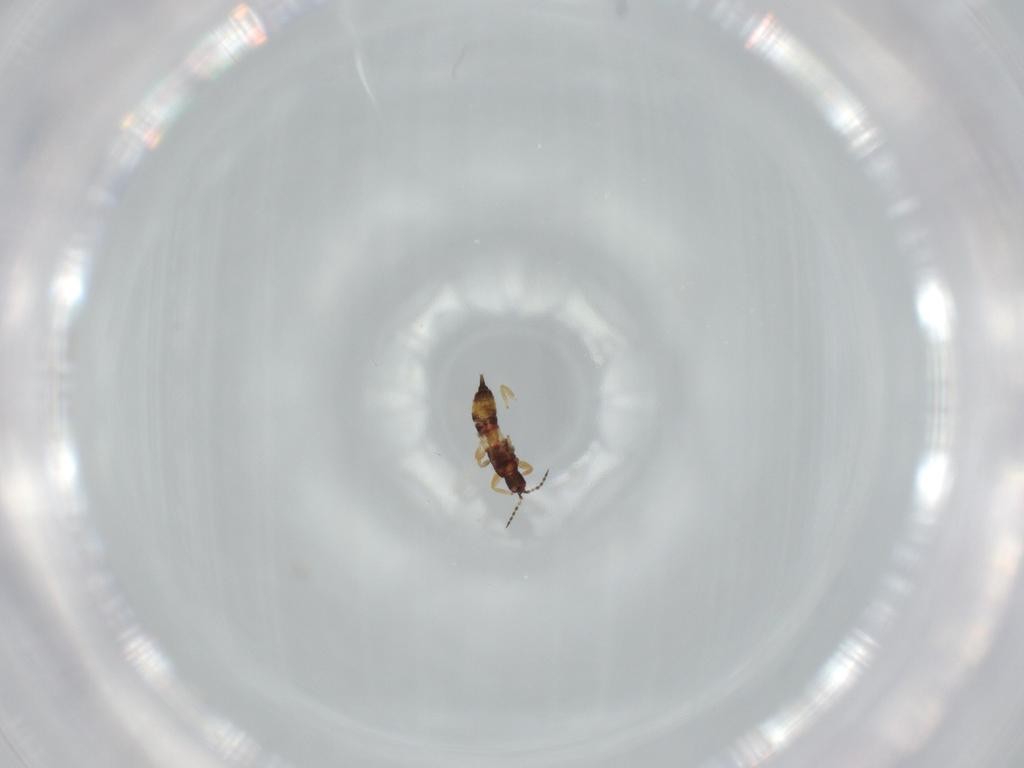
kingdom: Animalia
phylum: Arthropoda
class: Insecta
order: Thysanoptera
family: Phlaeothripidae
